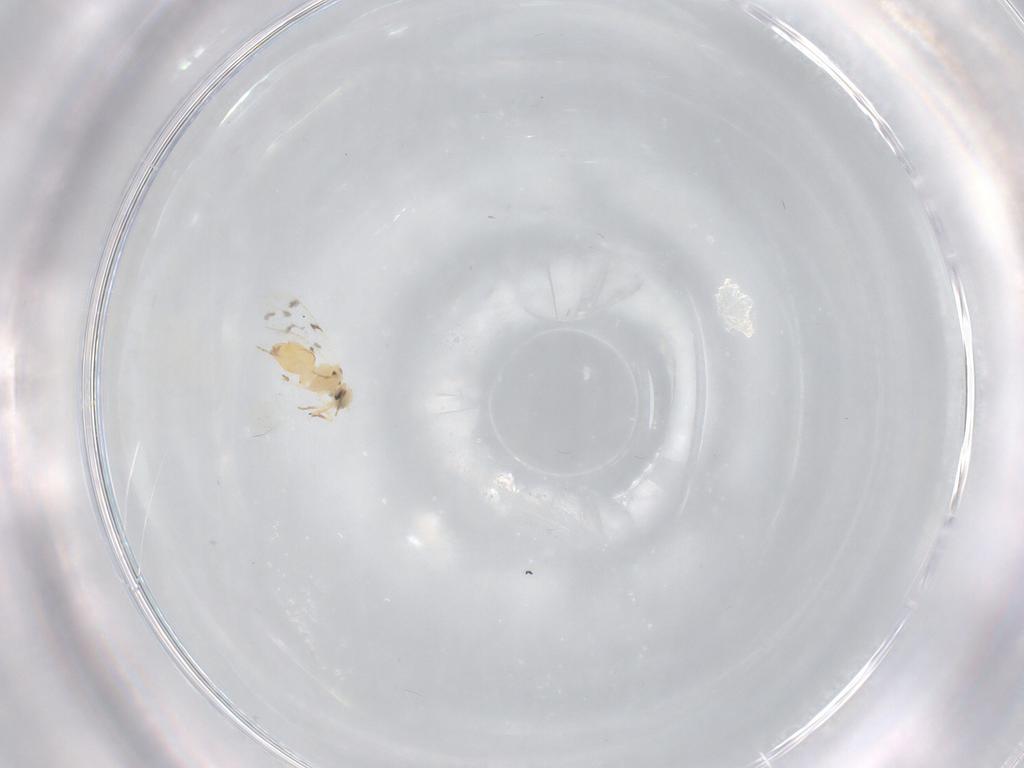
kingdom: Animalia
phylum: Arthropoda
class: Insecta
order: Hemiptera
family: Aleyrodidae
